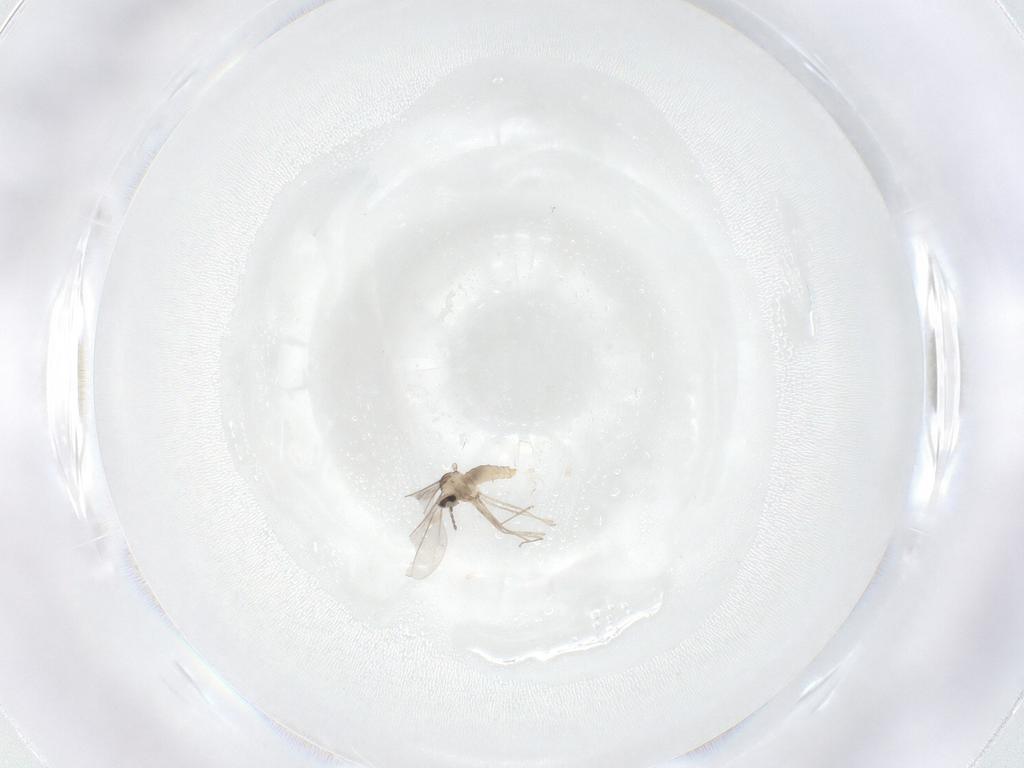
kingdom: Animalia
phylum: Arthropoda
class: Insecta
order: Diptera
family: Cecidomyiidae
